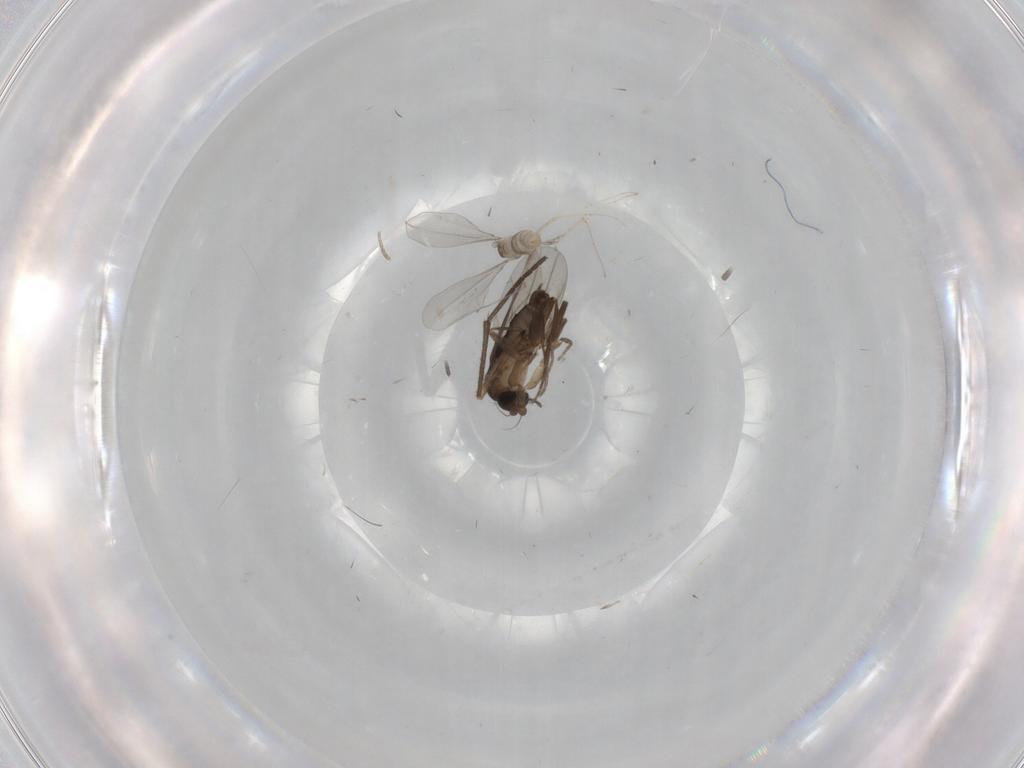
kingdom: Animalia
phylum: Arthropoda
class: Insecta
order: Diptera
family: Sciaridae
